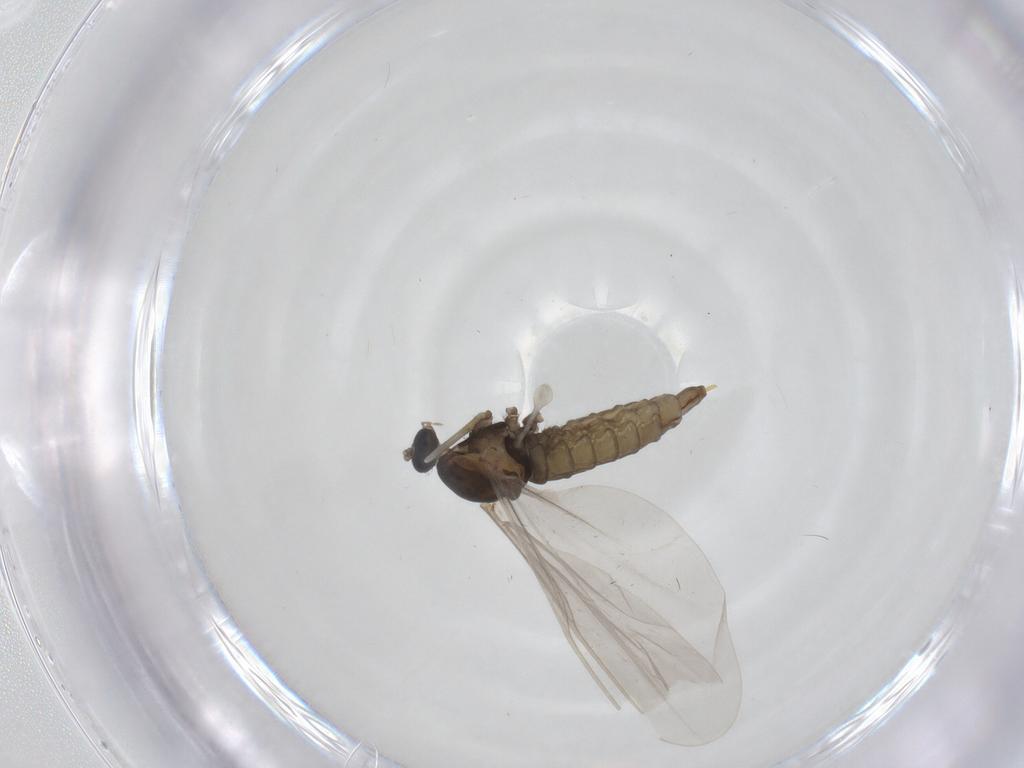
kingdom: Animalia
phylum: Arthropoda
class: Insecta
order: Diptera
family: Cecidomyiidae
